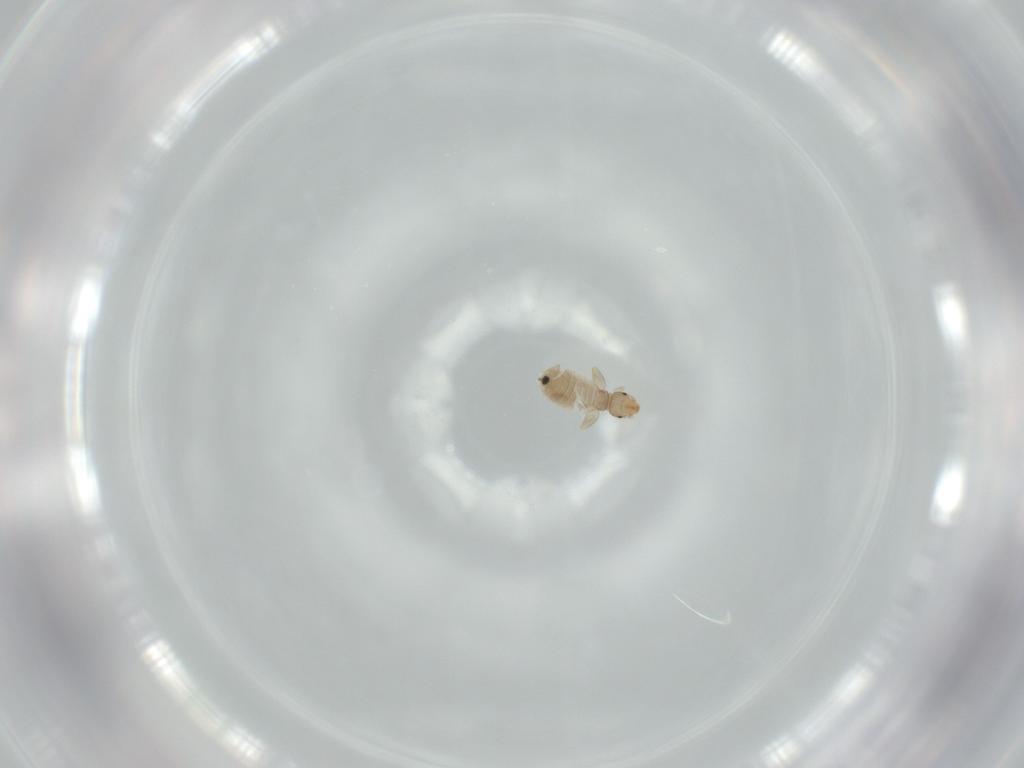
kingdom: Animalia
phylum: Arthropoda
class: Insecta
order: Psocodea
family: Liposcelididae
